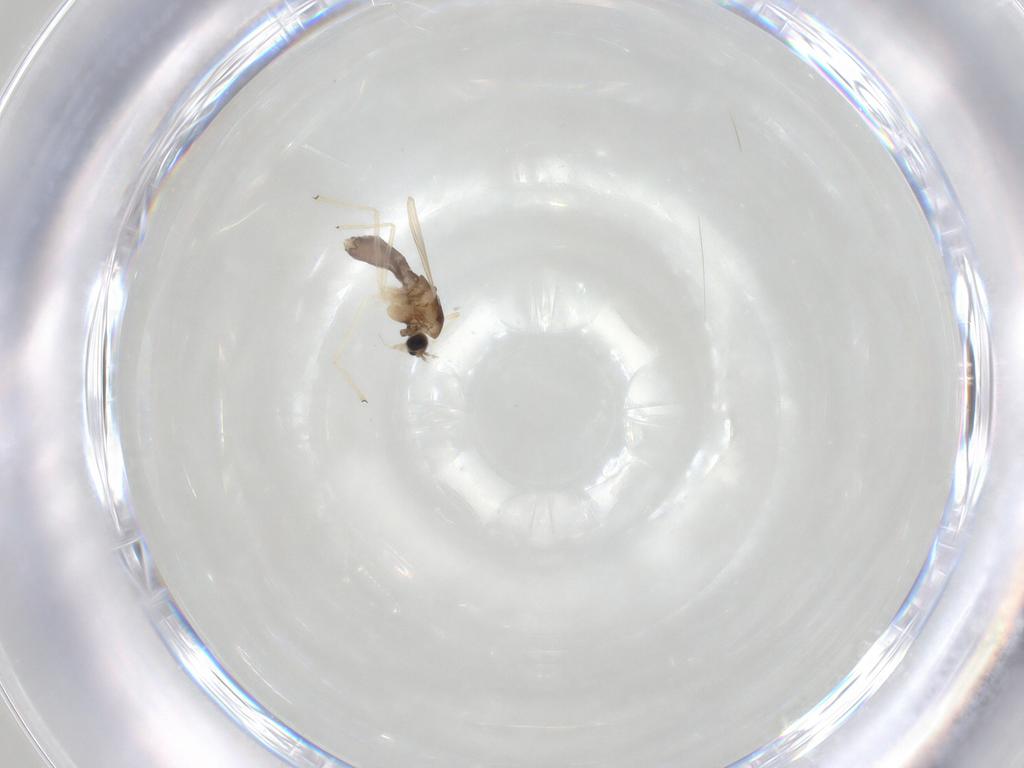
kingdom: Animalia
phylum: Arthropoda
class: Insecta
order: Diptera
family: Chironomidae
